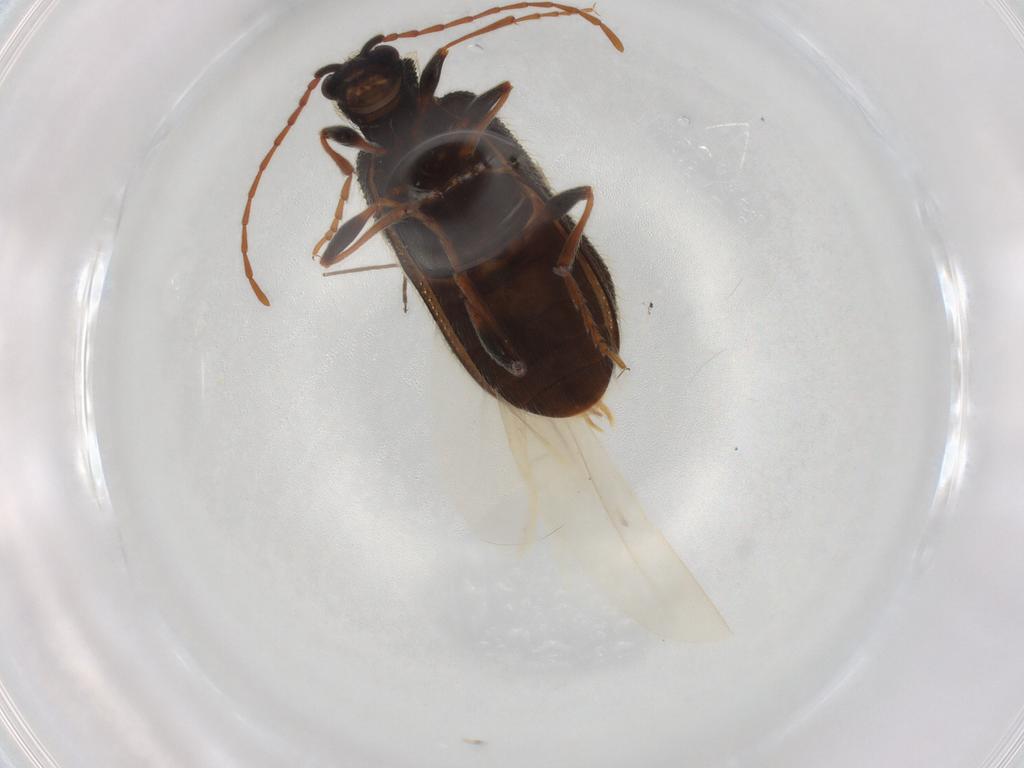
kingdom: Animalia
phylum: Arthropoda
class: Insecta
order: Coleoptera
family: Ptinidae
